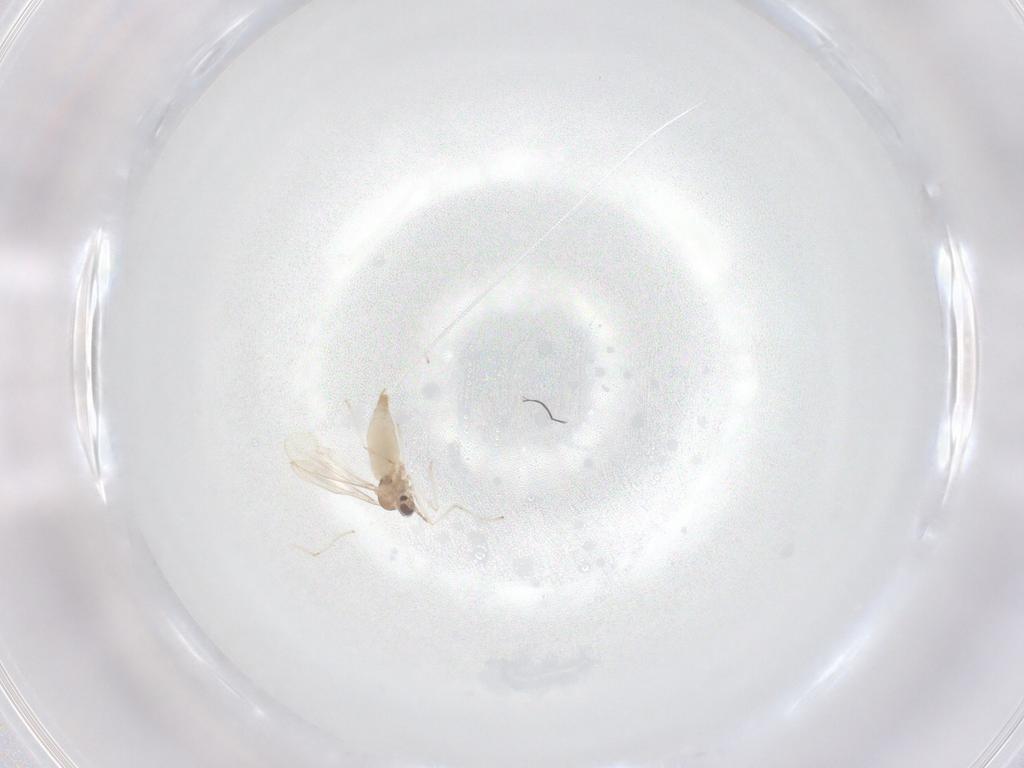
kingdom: Animalia
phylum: Arthropoda
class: Insecta
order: Diptera
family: Cecidomyiidae
